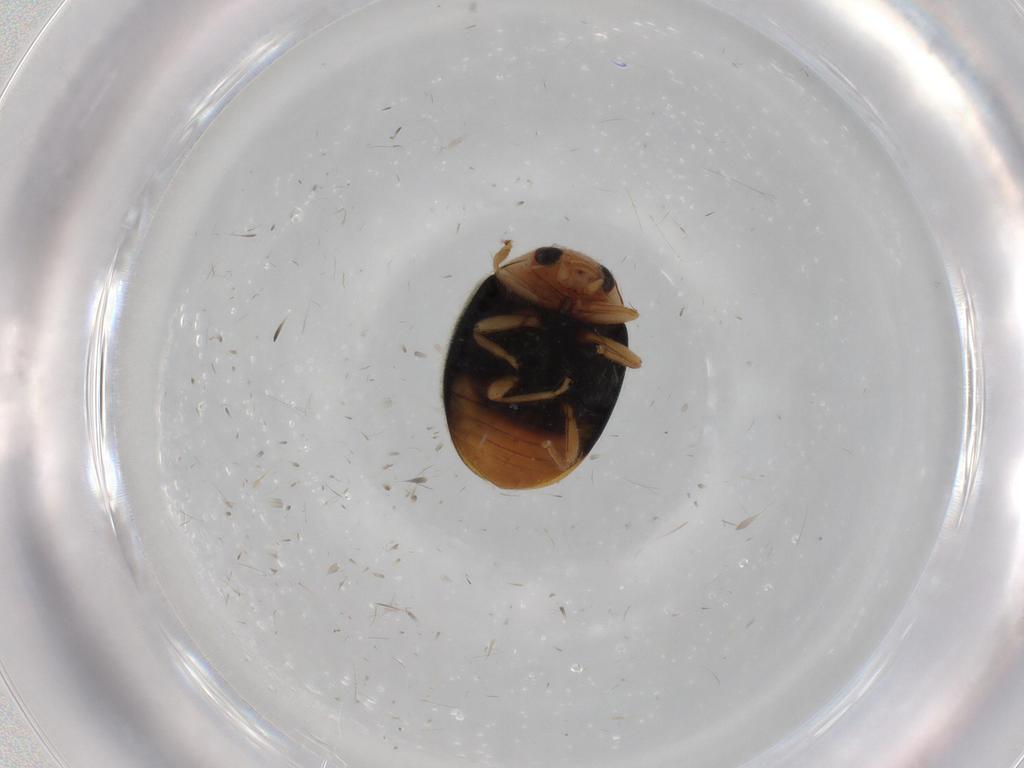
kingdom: Animalia
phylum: Arthropoda
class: Insecta
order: Coleoptera
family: Coccinellidae
